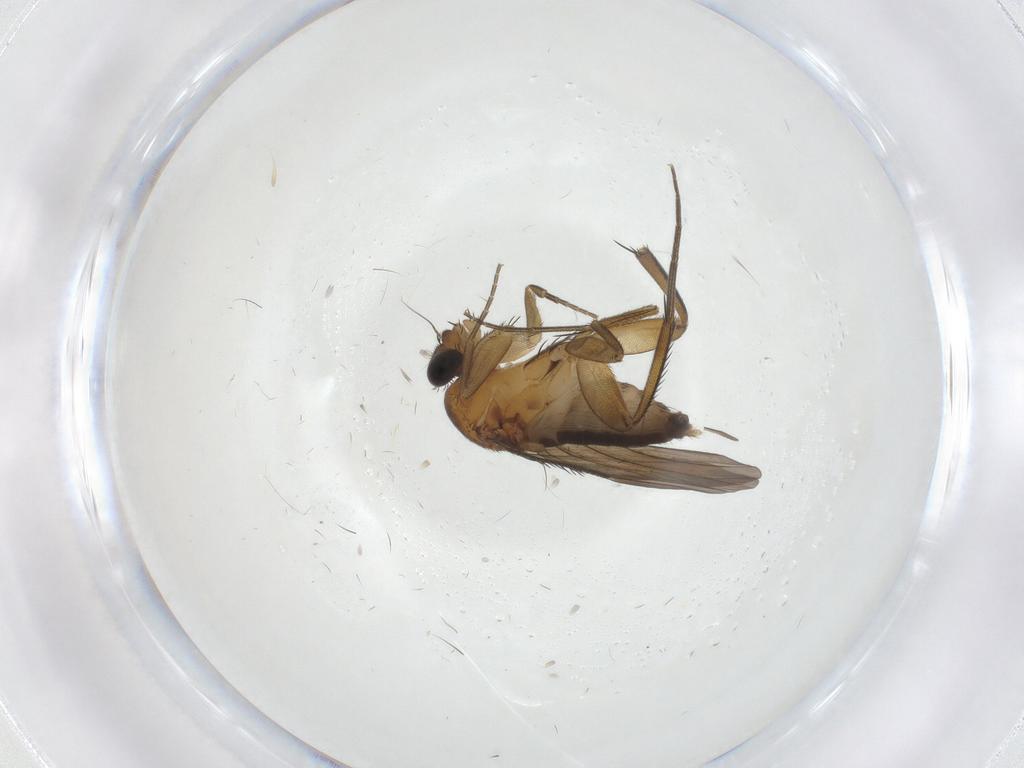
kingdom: Animalia
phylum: Arthropoda
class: Insecta
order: Diptera
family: Phoridae
